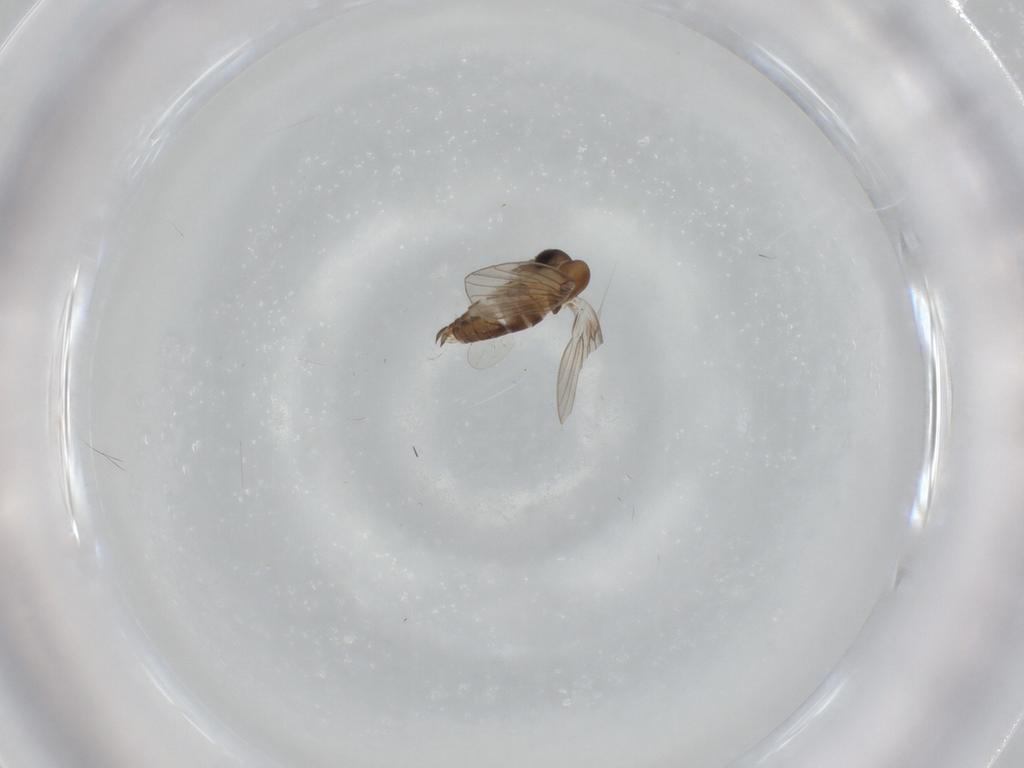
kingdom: Animalia
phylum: Arthropoda
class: Insecta
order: Diptera
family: Psychodidae
